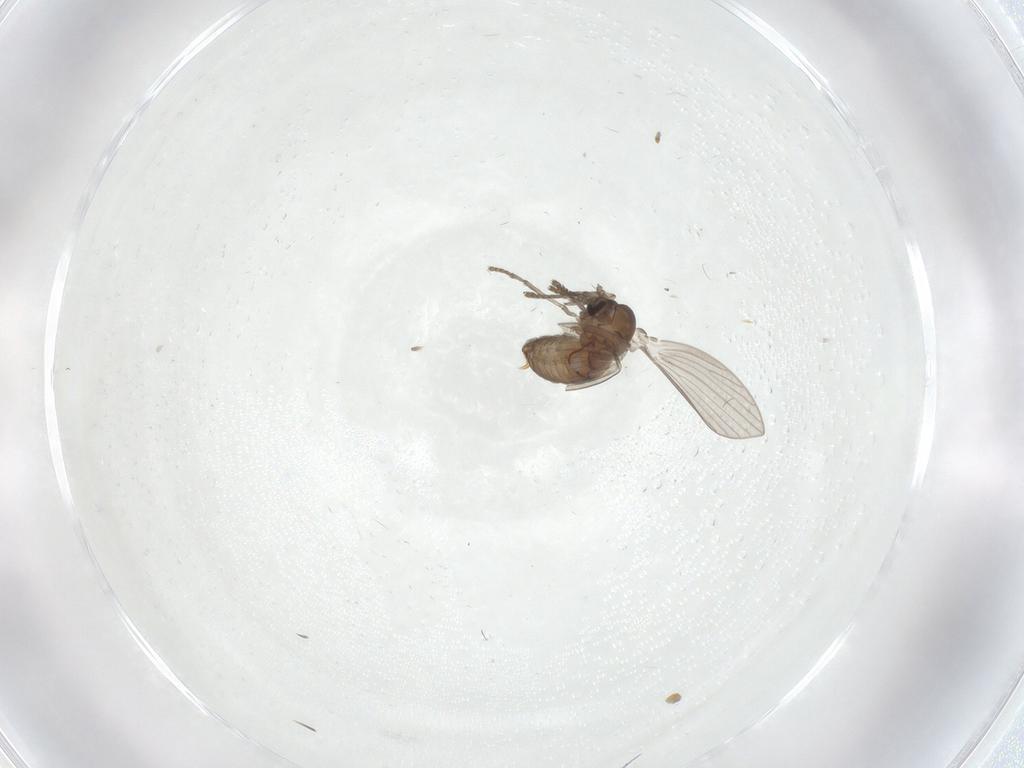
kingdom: Animalia
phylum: Arthropoda
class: Insecta
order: Diptera
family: Psychodidae
